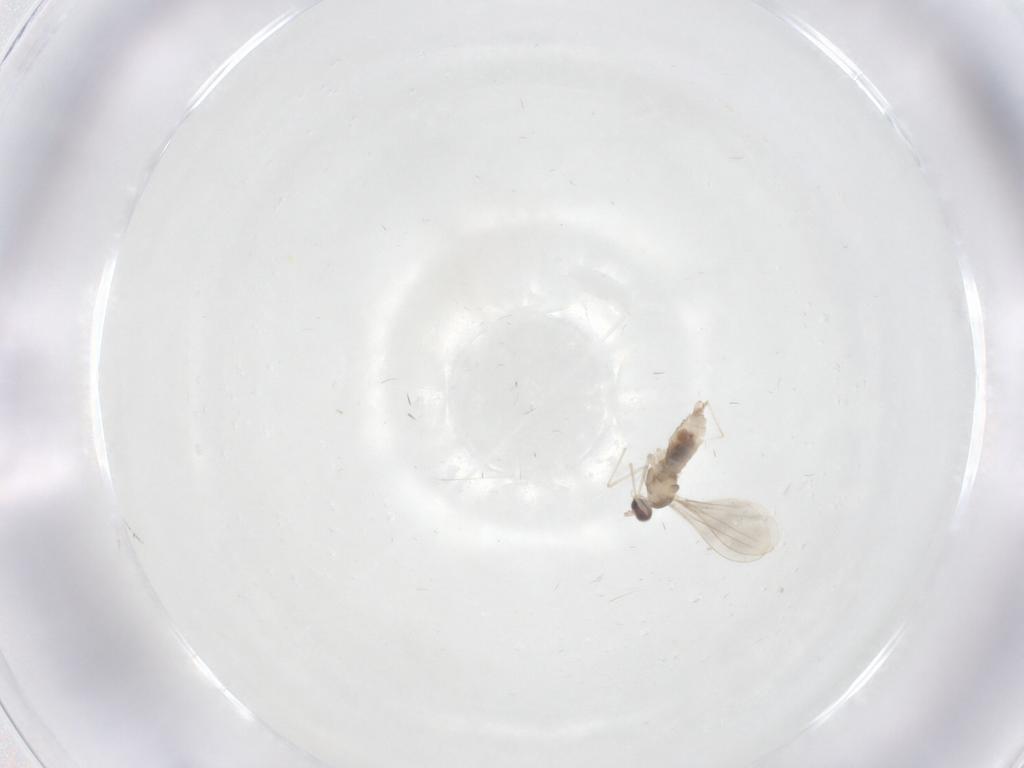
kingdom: Animalia
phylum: Arthropoda
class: Insecta
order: Diptera
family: Cecidomyiidae
